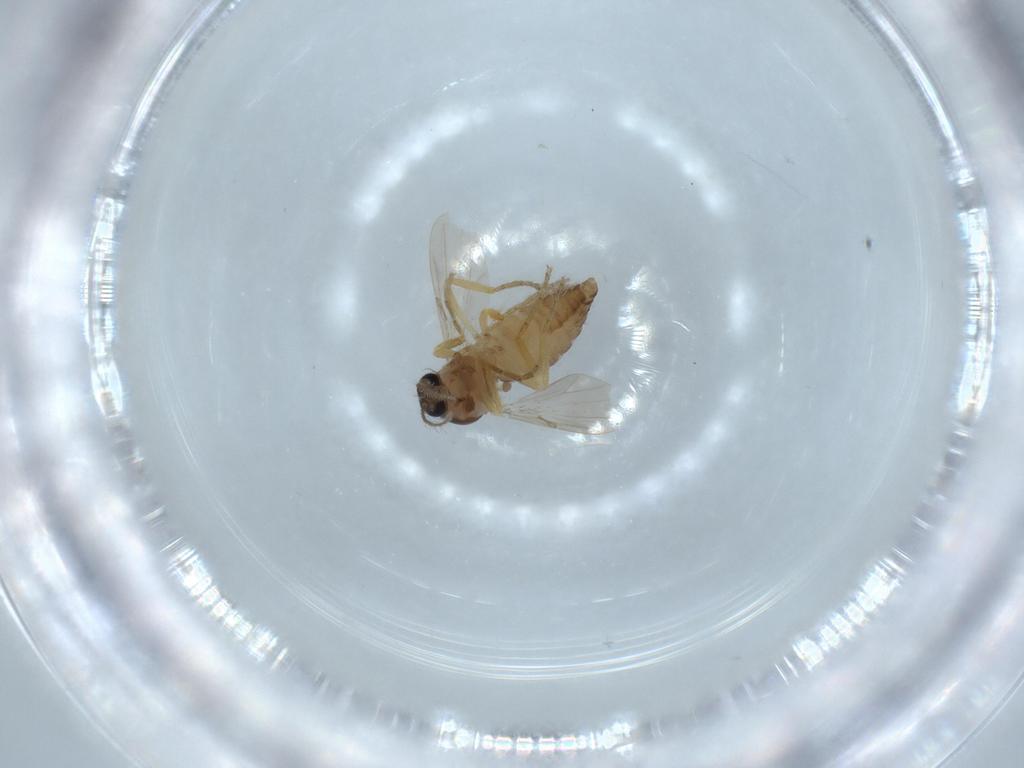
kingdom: Animalia
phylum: Arthropoda
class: Insecta
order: Diptera
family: Ceratopogonidae
